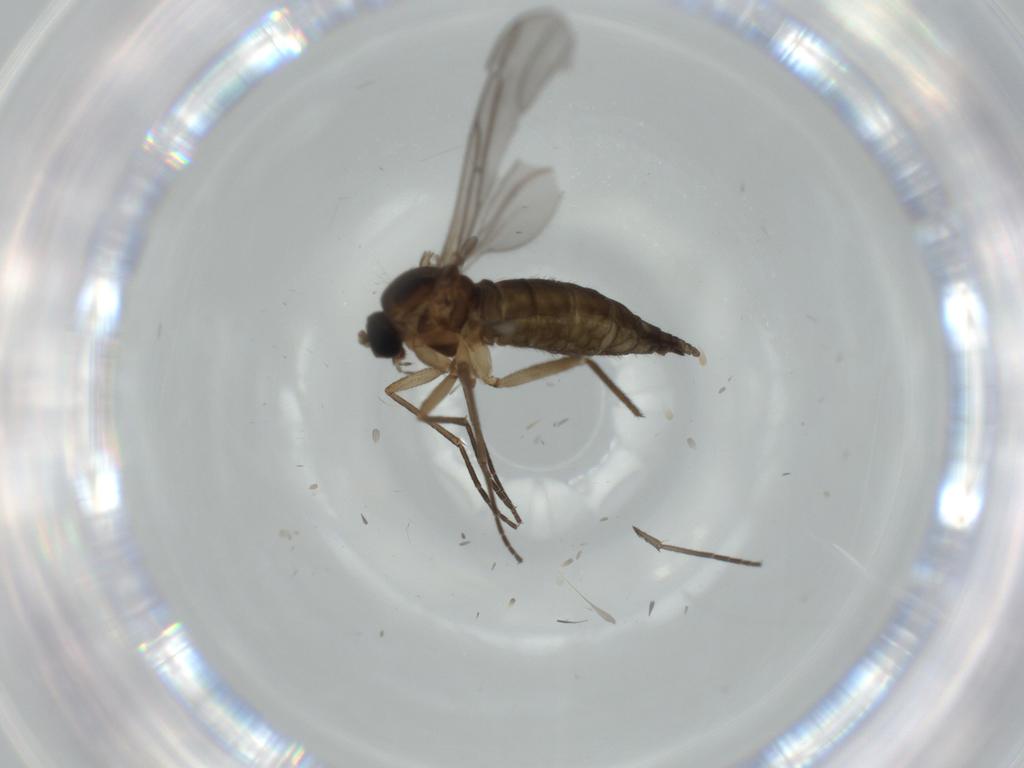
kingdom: Animalia
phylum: Arthropoda
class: Insecta
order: Diptera
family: Sciaridae
